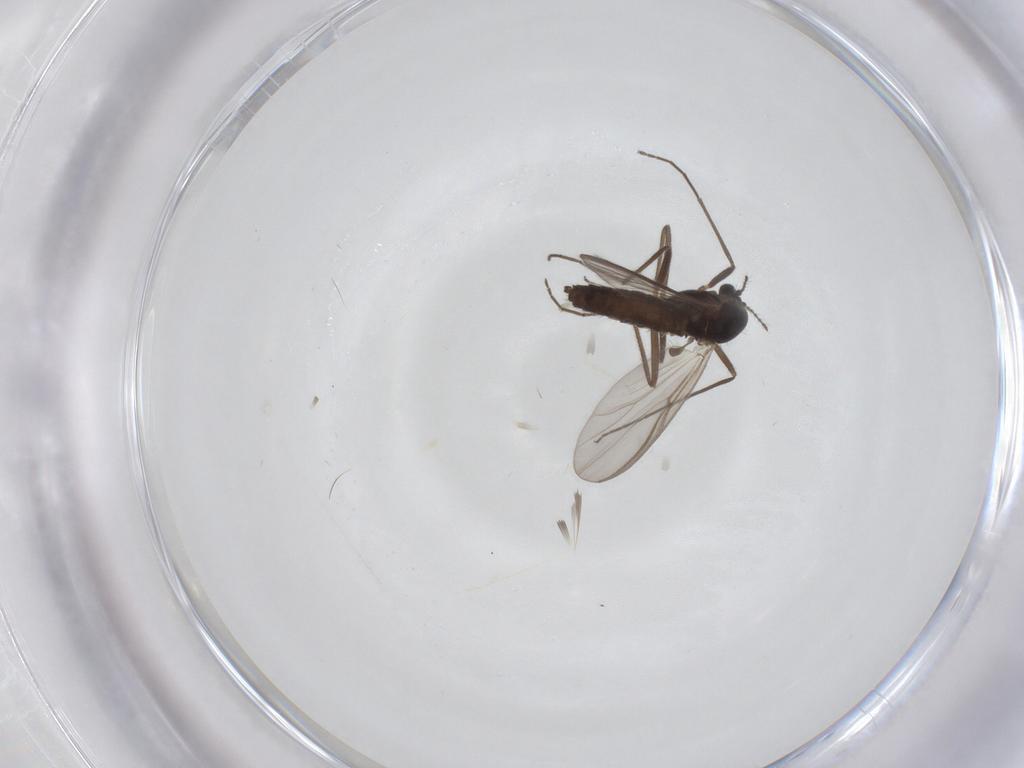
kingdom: Animalia
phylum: Arthropoda
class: Insecta
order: Diptera
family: Chironomidae
